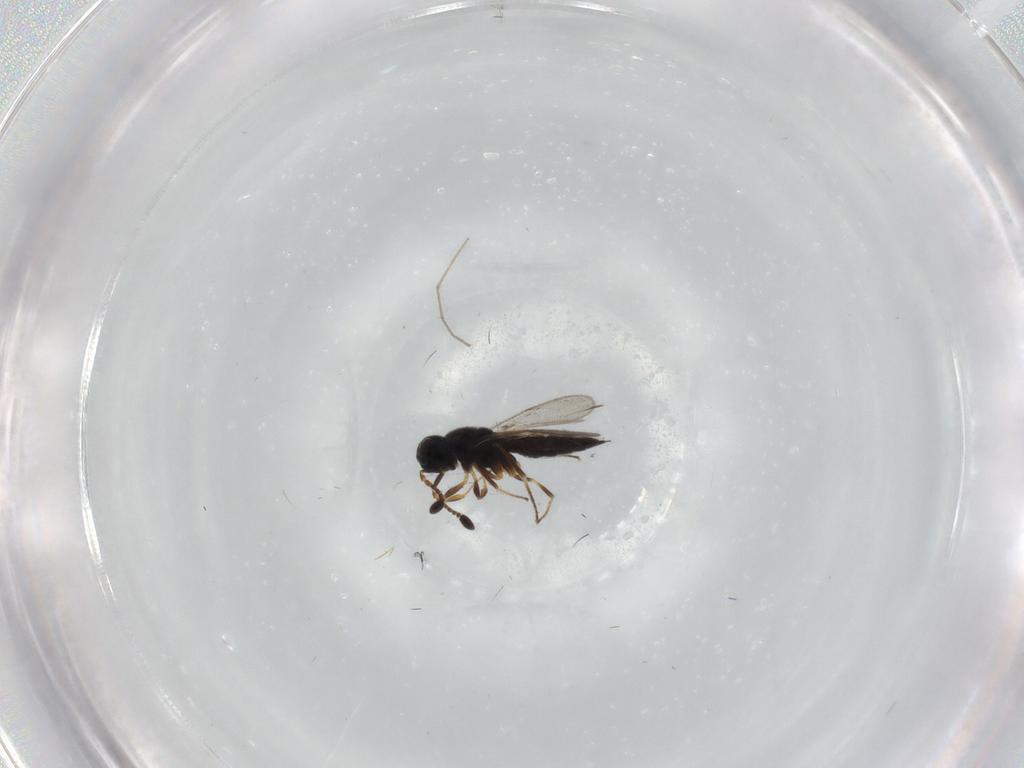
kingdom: Animalia
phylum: Arthropoda
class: Insecta
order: Hymenoptera
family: Scelionidae
